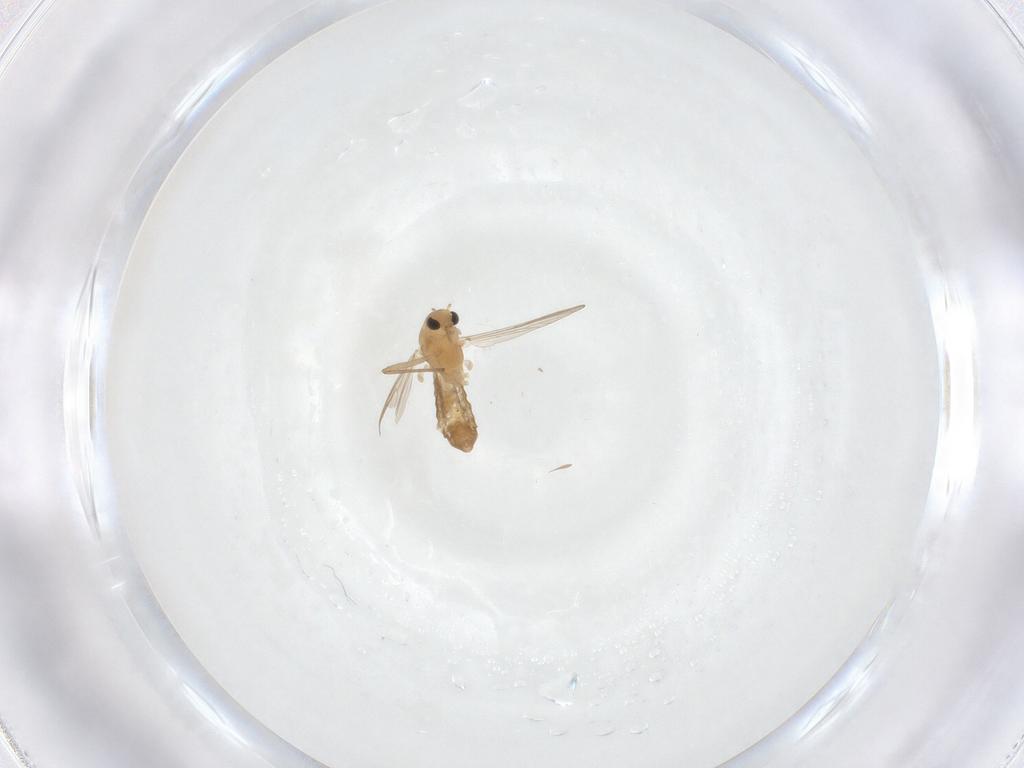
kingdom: Animalia
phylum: Arthropoda
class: Insecta
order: Diptera
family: Chironomidae
